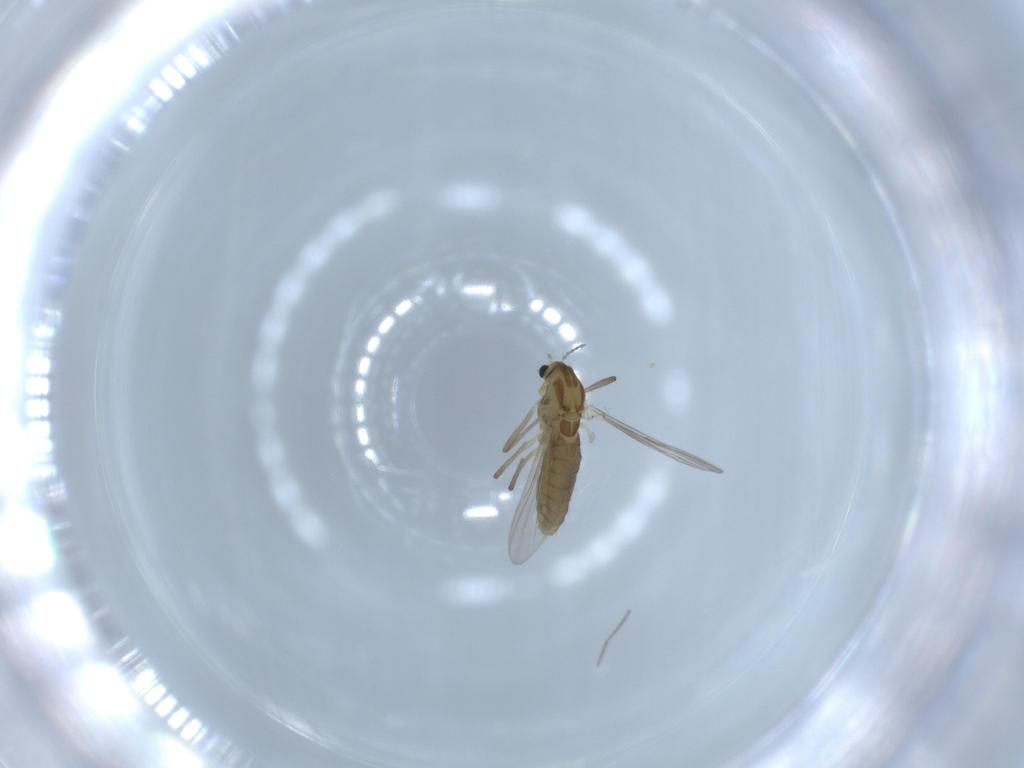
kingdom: Animalia
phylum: Arthropoda
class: Insecta
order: Diptera
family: Chironomidae
